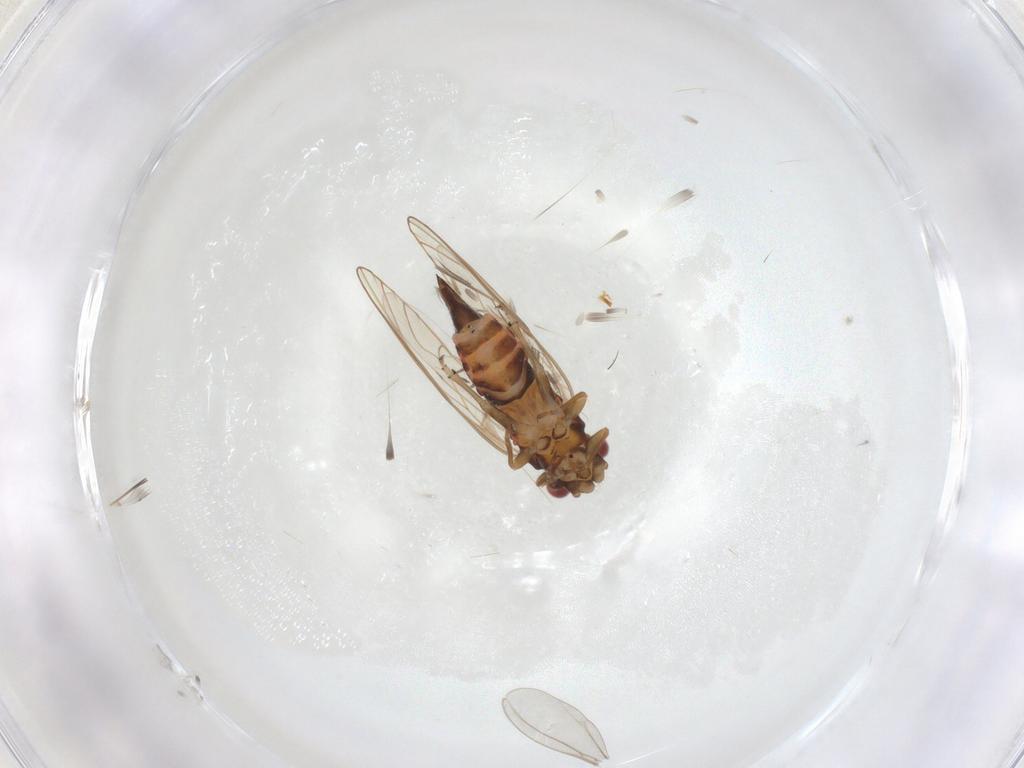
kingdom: Animalia
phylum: Arthropoda
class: Insecta
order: Hemiptera
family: Psyllidae
